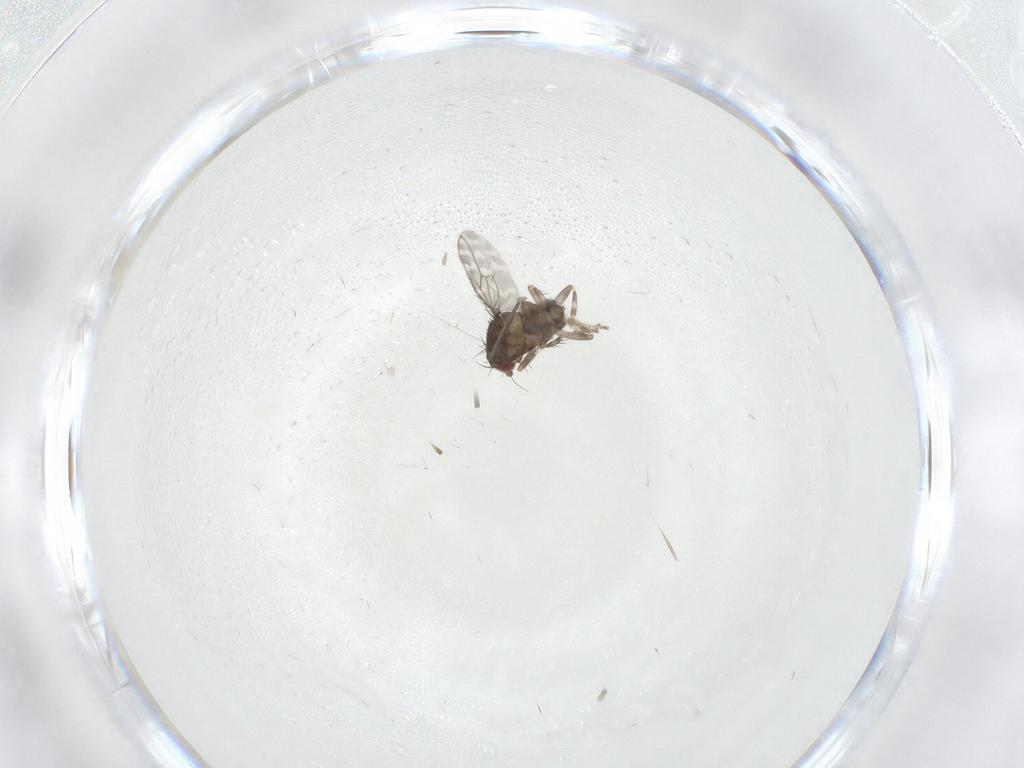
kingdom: Animalia
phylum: Arthropoda
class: Insecta
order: Diptera
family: Sphaeroceridae
